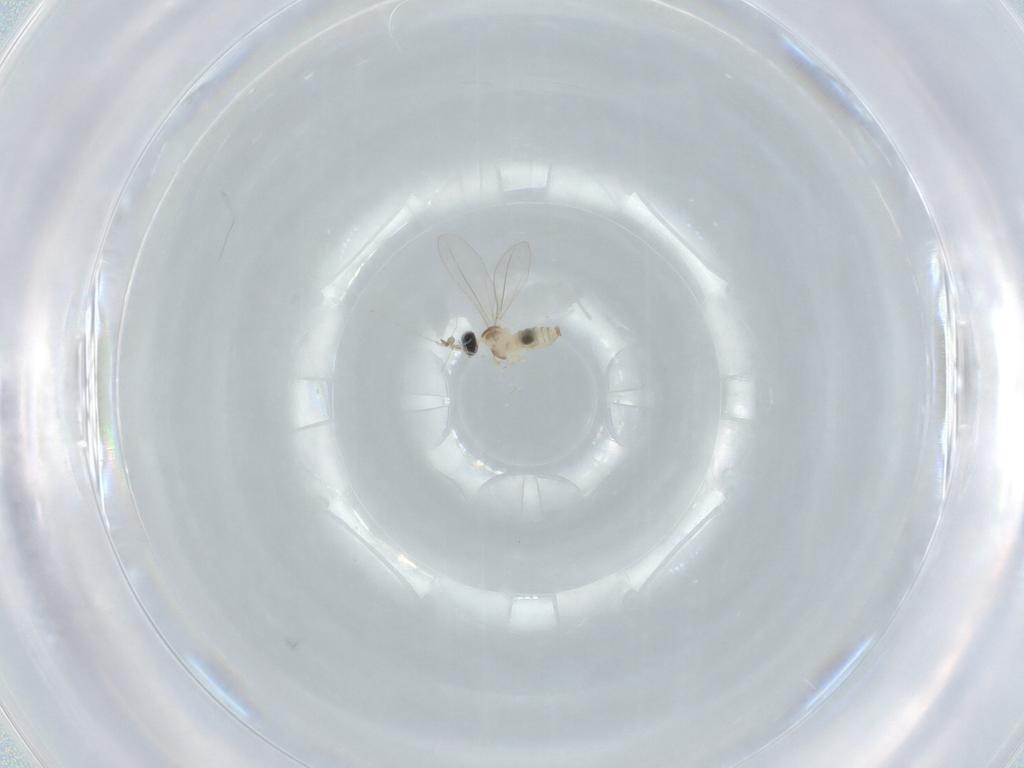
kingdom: Animalia
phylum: Arthropoda
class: Insecta
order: Diptera
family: Cecidomyiidae
